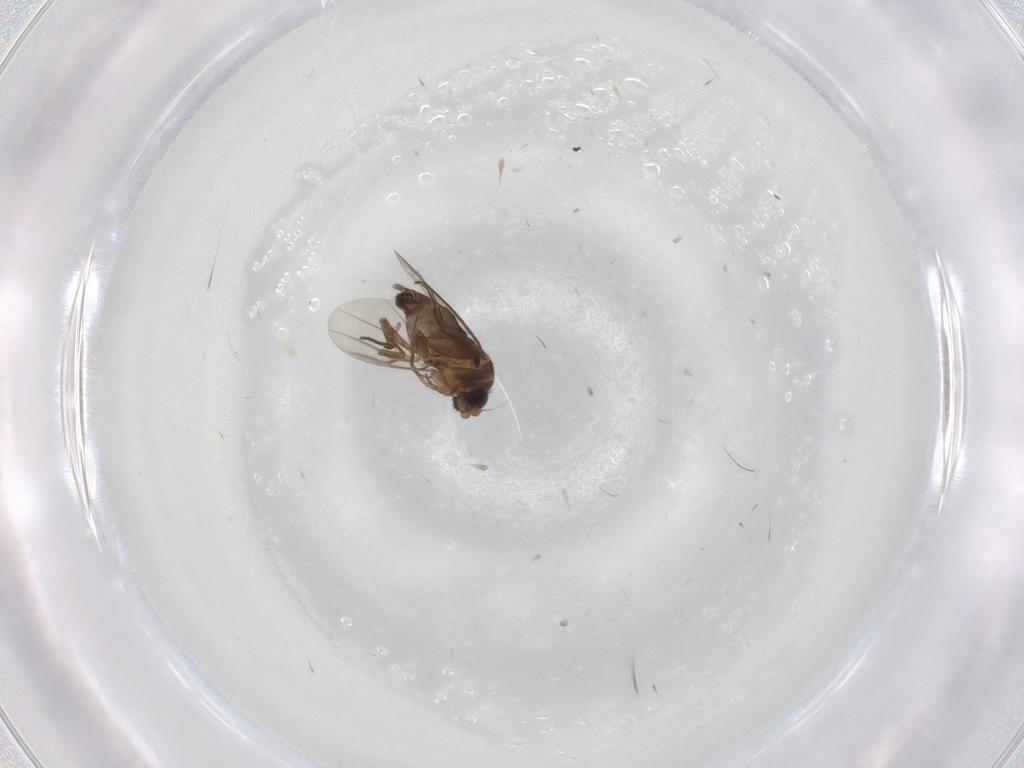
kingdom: Animalia
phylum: Arthropoda
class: Insecta
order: Diptera
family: Phoridae
